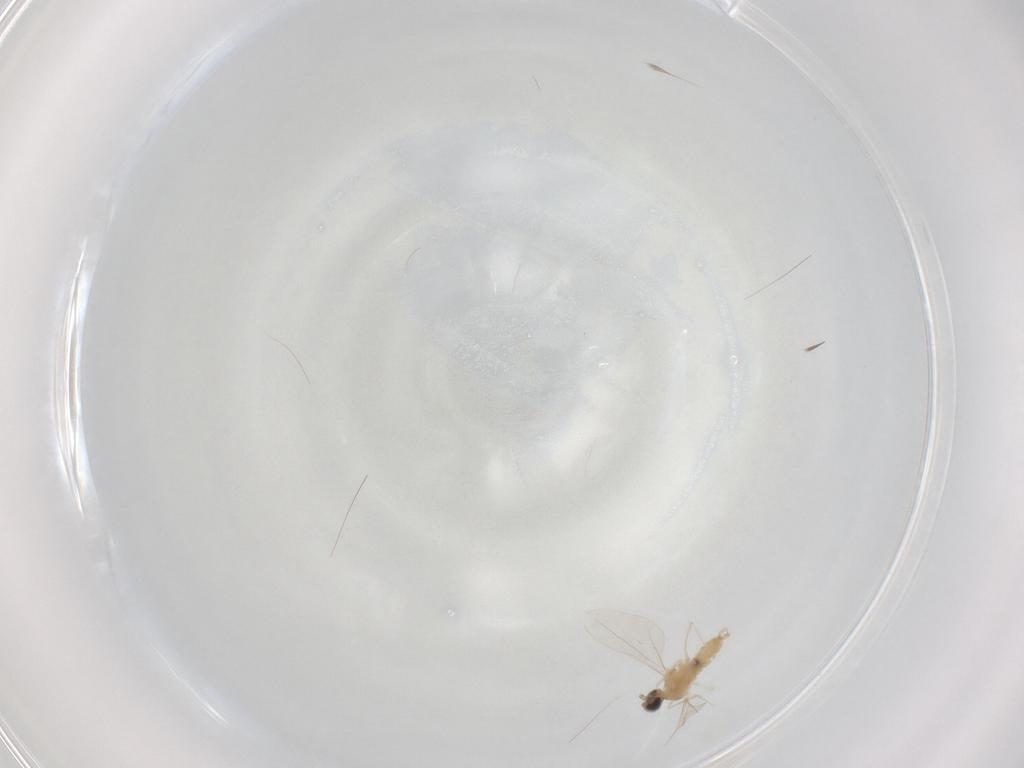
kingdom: Animalia
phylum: Arthropoda
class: Insecta
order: Diptera
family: Cecidomyiidae
